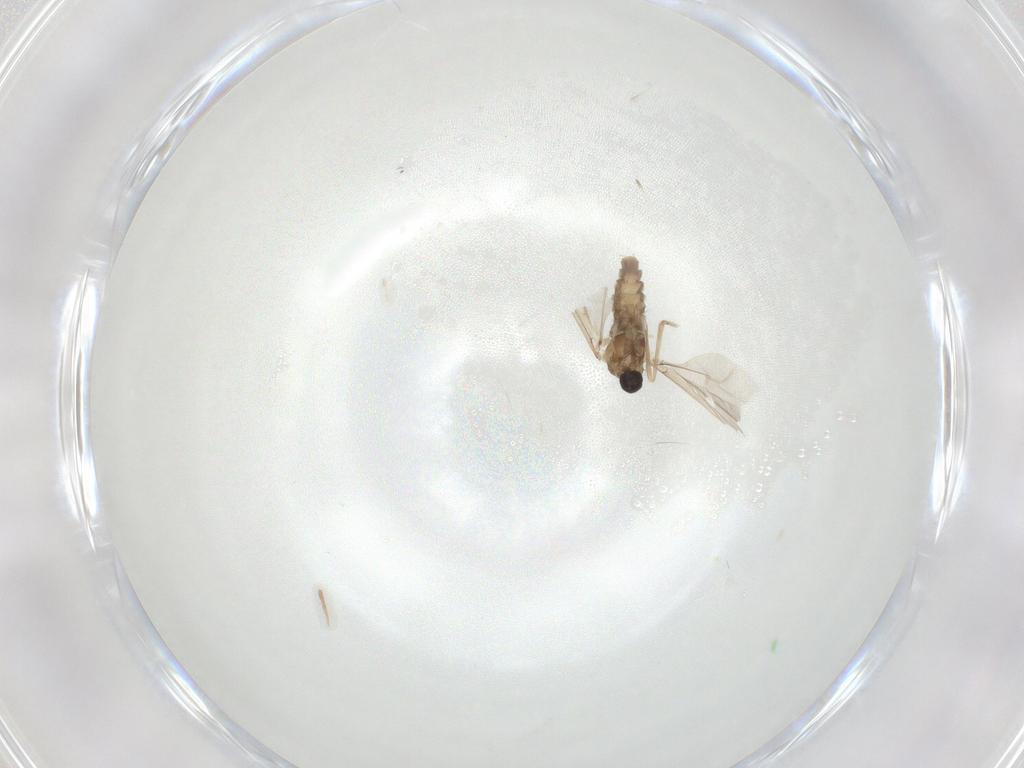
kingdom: Animalia
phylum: Arthropoda
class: Insecta
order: Diptera
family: Cecidomyiidae
